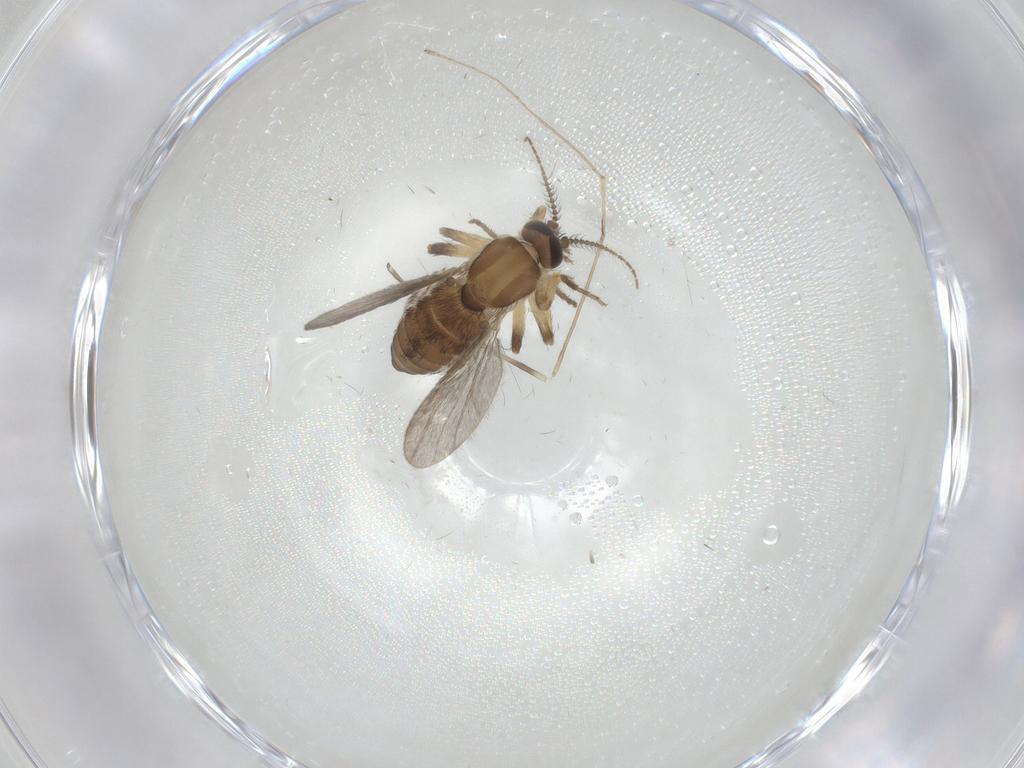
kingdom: Animalia
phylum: Arthropoda
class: Insecta
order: Diptera
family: Ceratopogonidae
